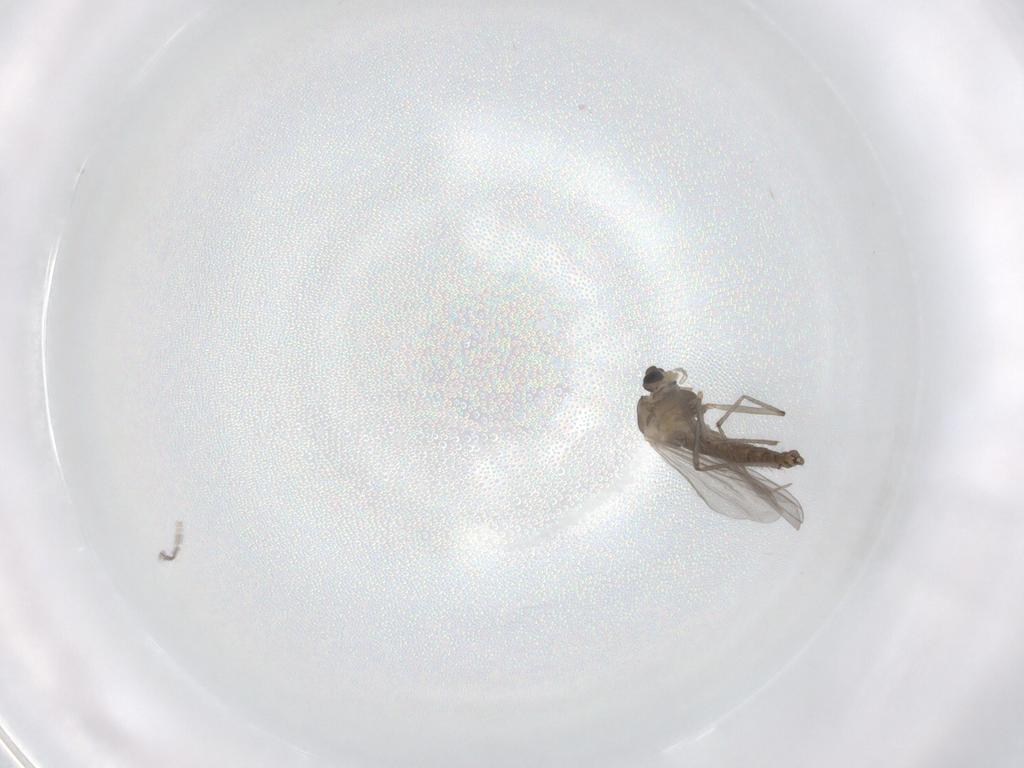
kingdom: Animalia
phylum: Arthropoda
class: Insecta
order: Diptera
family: Chironomidae
